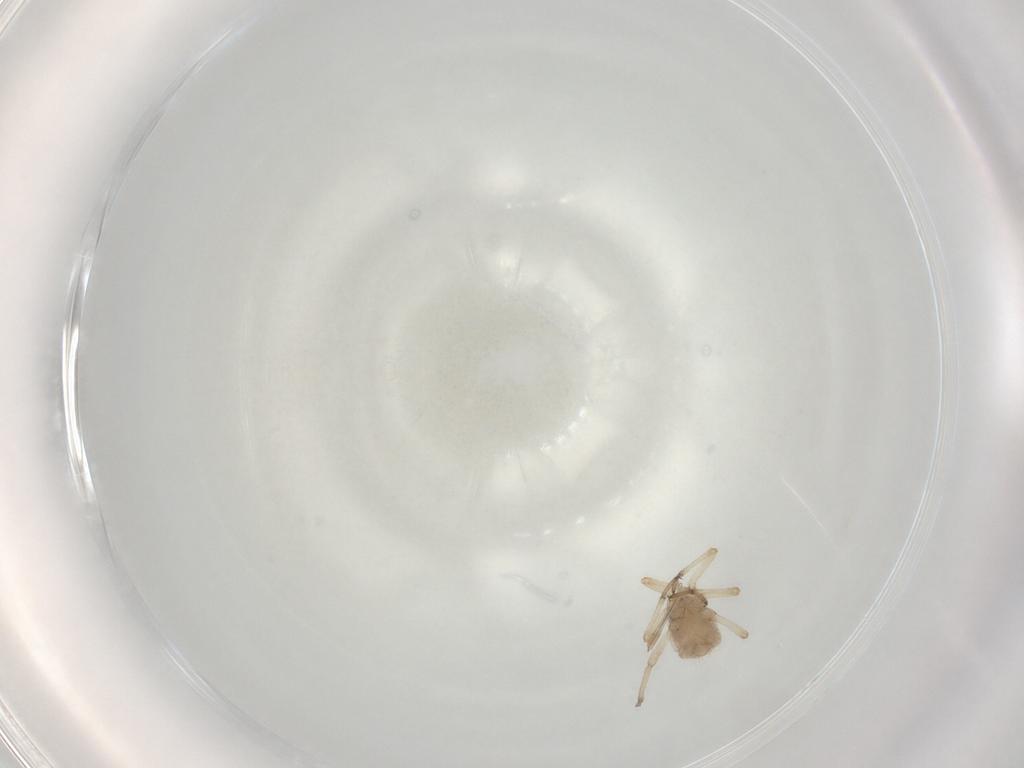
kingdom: Animalia
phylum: Arthropoda
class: Insecta
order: Hemiptera
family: Aphididae
